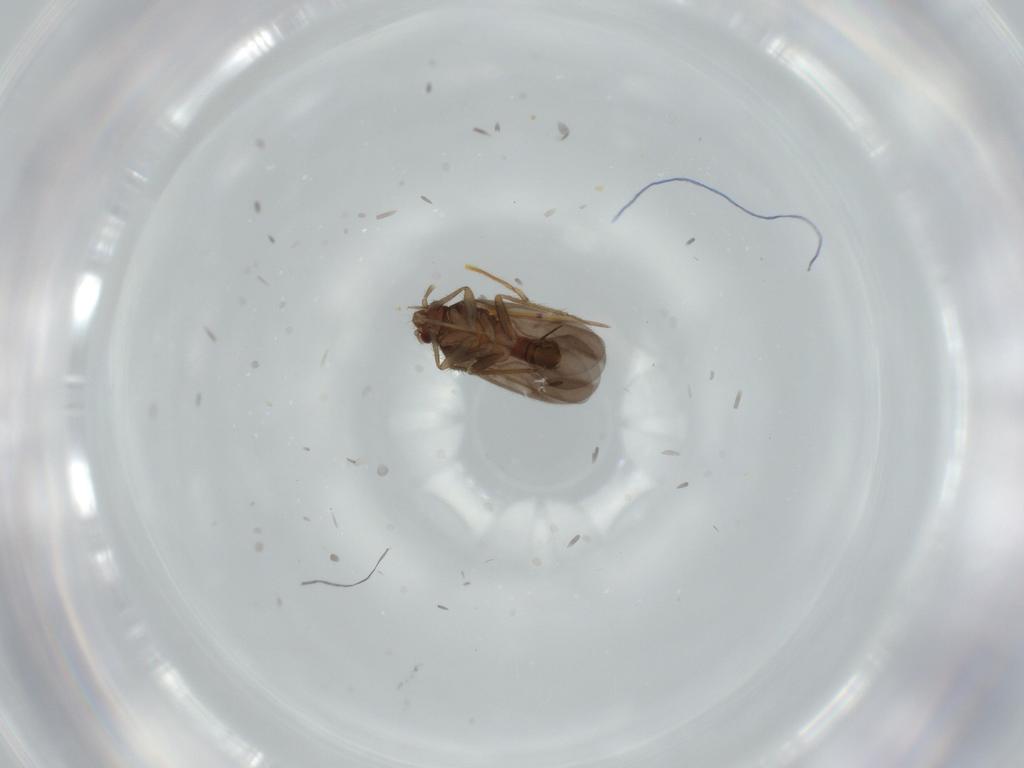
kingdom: Animalia
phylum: Arthropoda
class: Insecta
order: Hemiptera
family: Ceratocombidae
